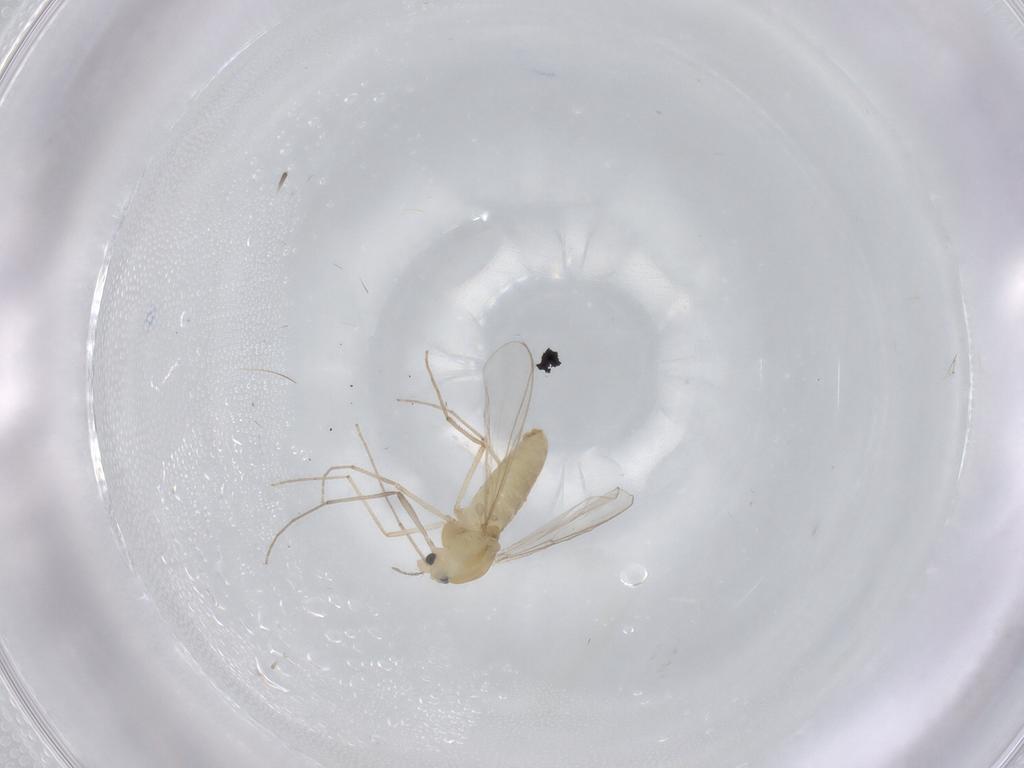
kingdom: Animalia
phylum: Arthropoda
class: Insecta
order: Diptera
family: Chironomidae
